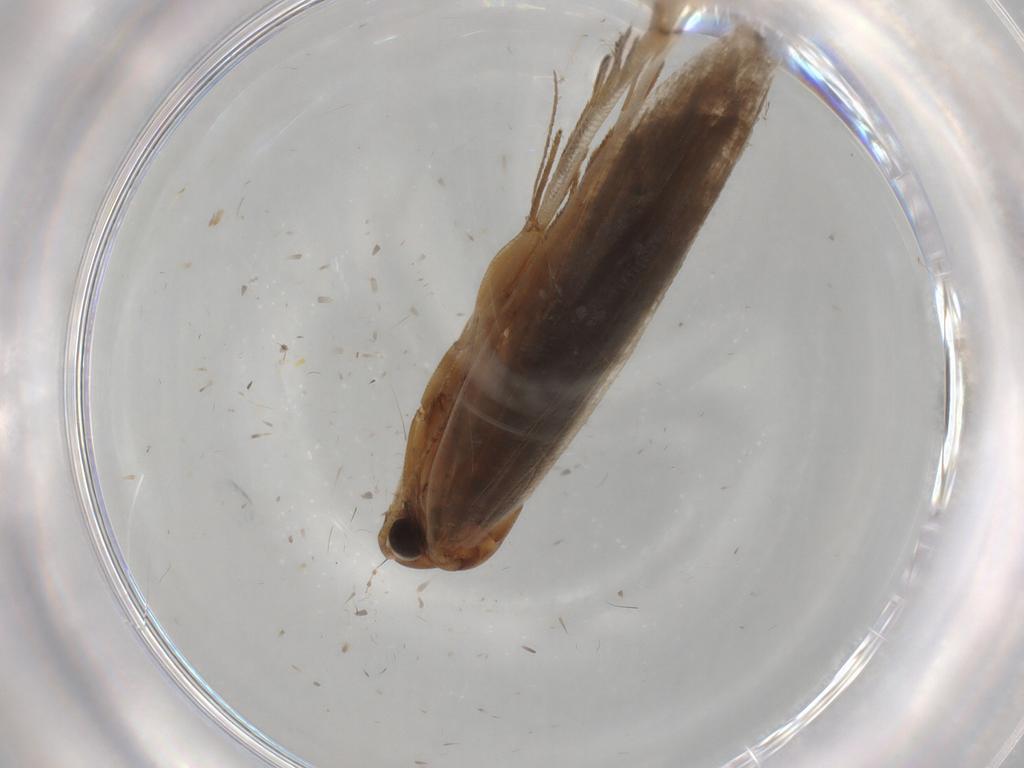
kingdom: Animalia
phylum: Arthropoda
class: Insecta
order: Lepidoptera
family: Gelechiidae
